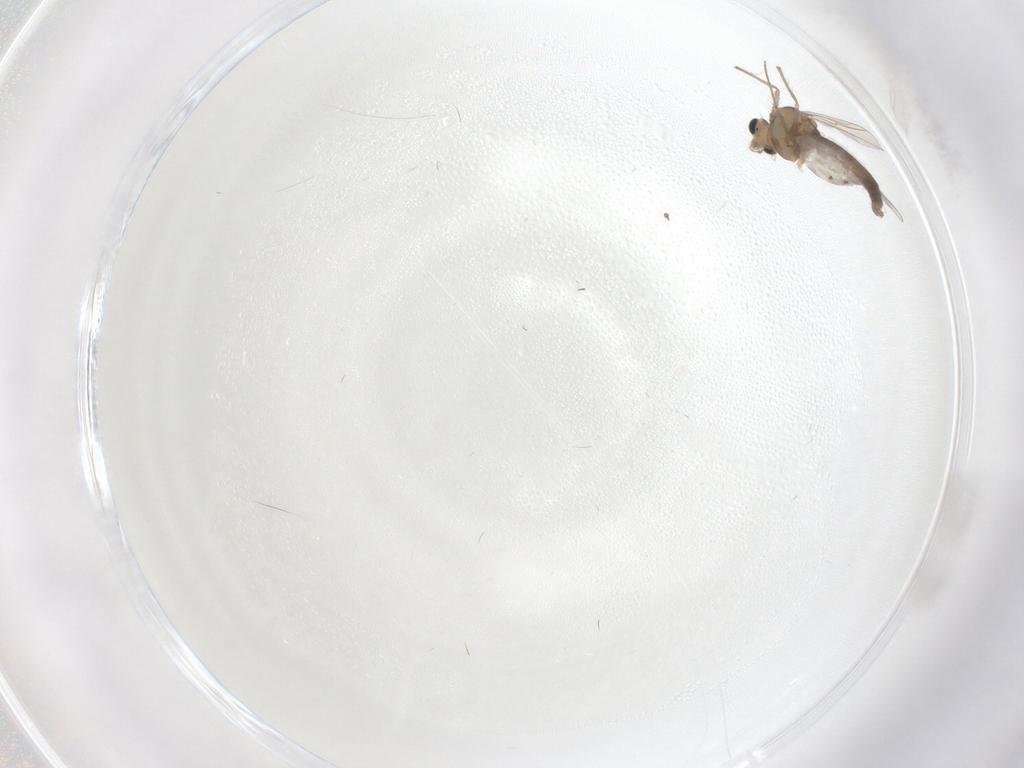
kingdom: Animalia
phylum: Arthropoda
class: Insecta
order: Diptera
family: Chironomidae
